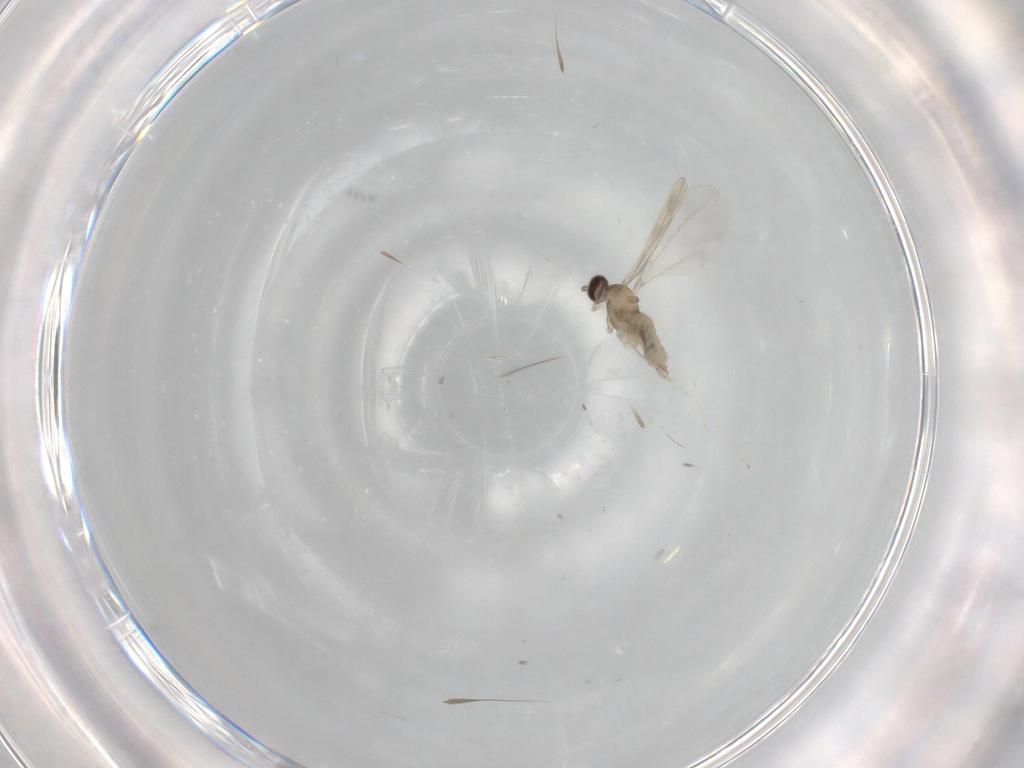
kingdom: Animalia
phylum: Arthropoda
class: Insecta
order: Diptera
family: Cecidomyiidae
